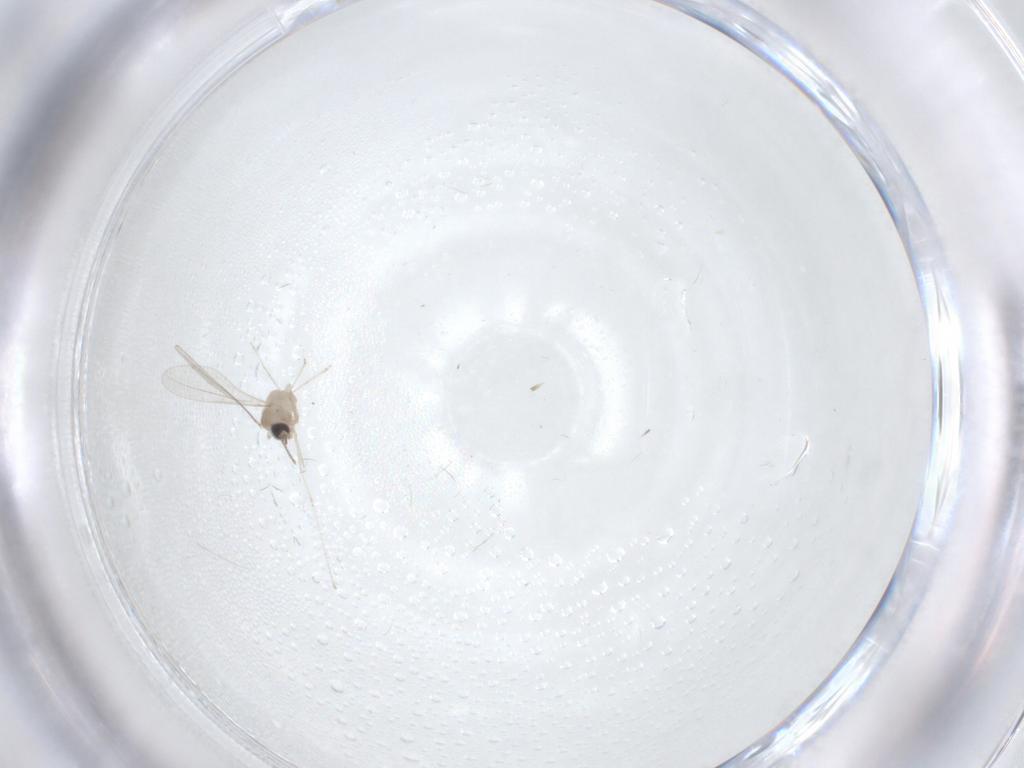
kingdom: Animalia
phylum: Arthropoda
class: Insecta
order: Diptera
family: Cecidomyiidae
